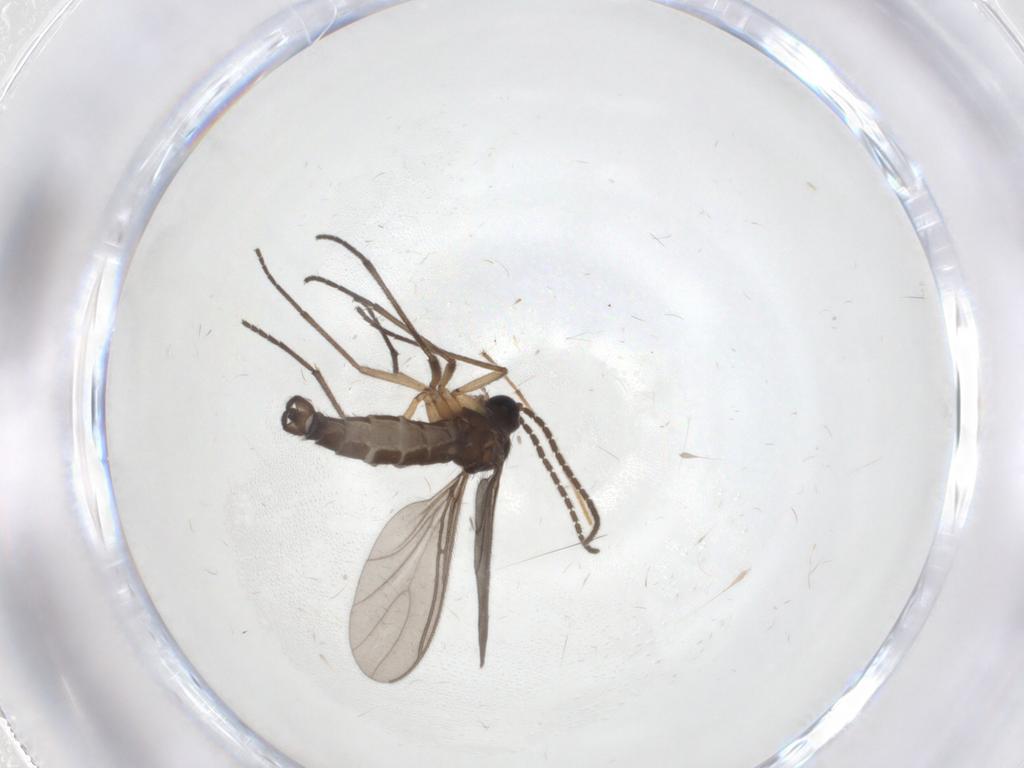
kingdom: Animalia
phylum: Arthropoda
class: Insecta
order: Diptera
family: Sciaridae
